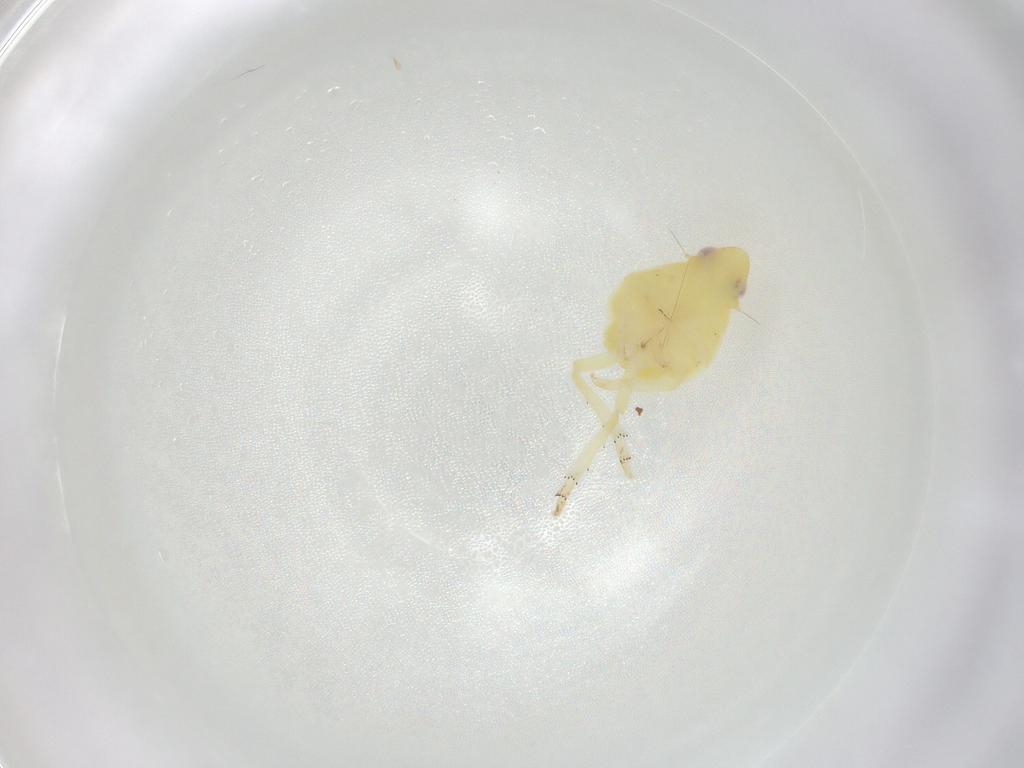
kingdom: Animalia
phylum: Arthropoda
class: Insecta
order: Hemiptera
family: Tropiduchidae
